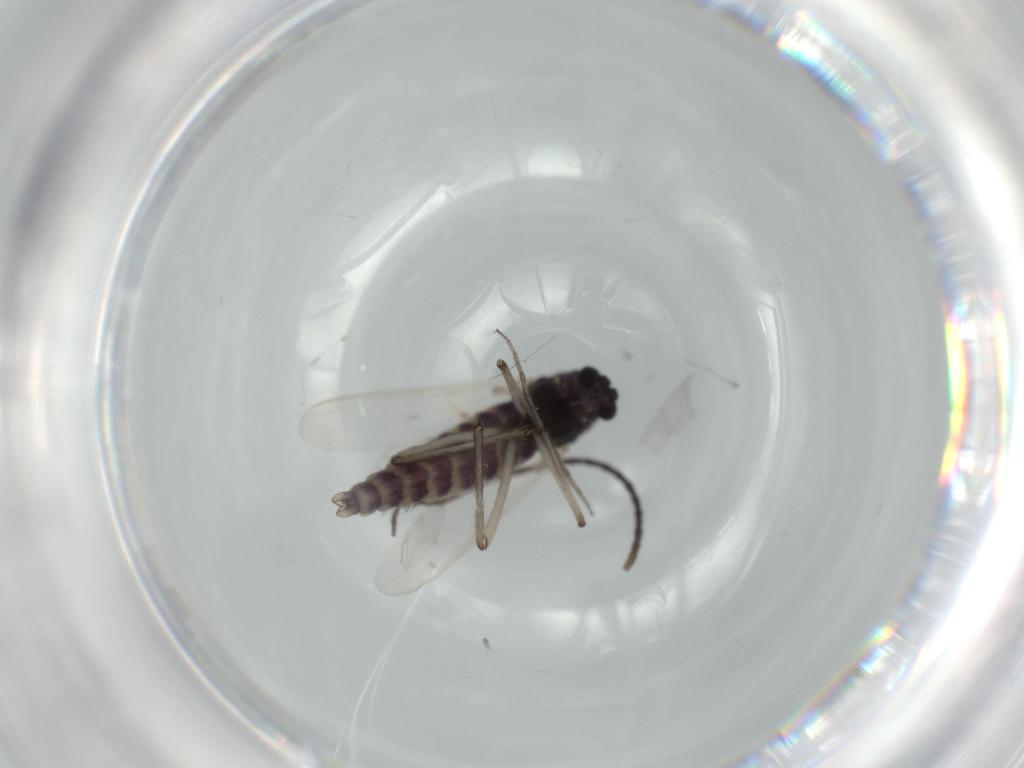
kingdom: Animalia
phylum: Arthropoda
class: Insecta
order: Diptera
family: Phoridae
